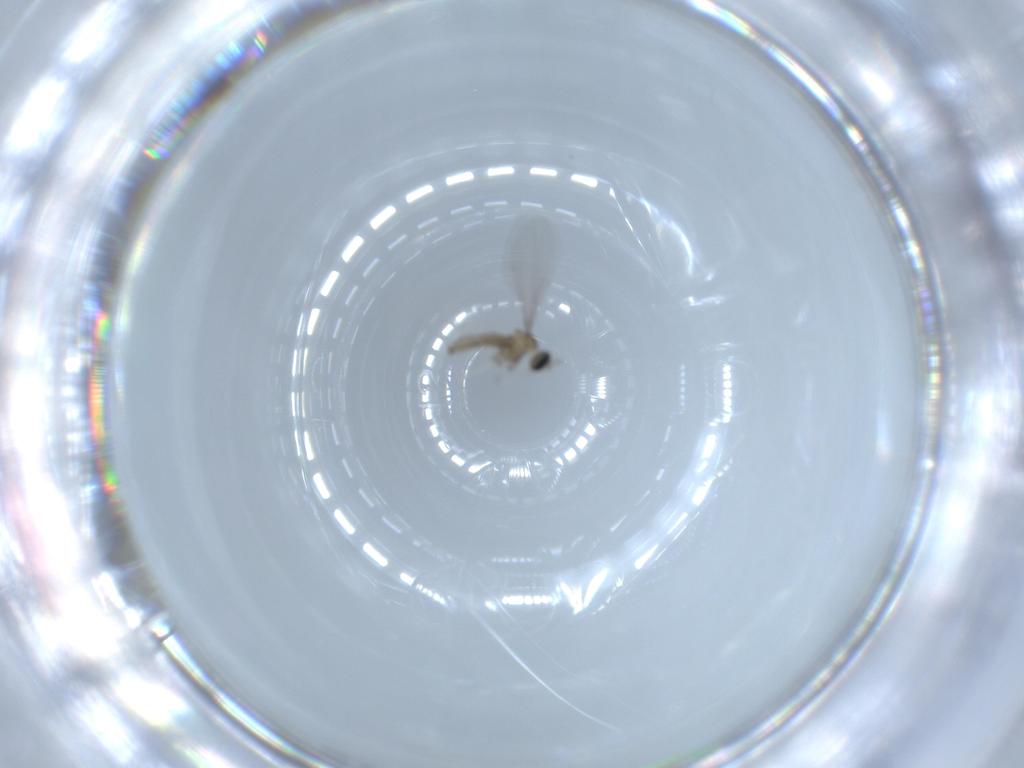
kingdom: Animalia
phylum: Arthropoda
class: Insecta
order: Diptera
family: Cecidomyiidae
